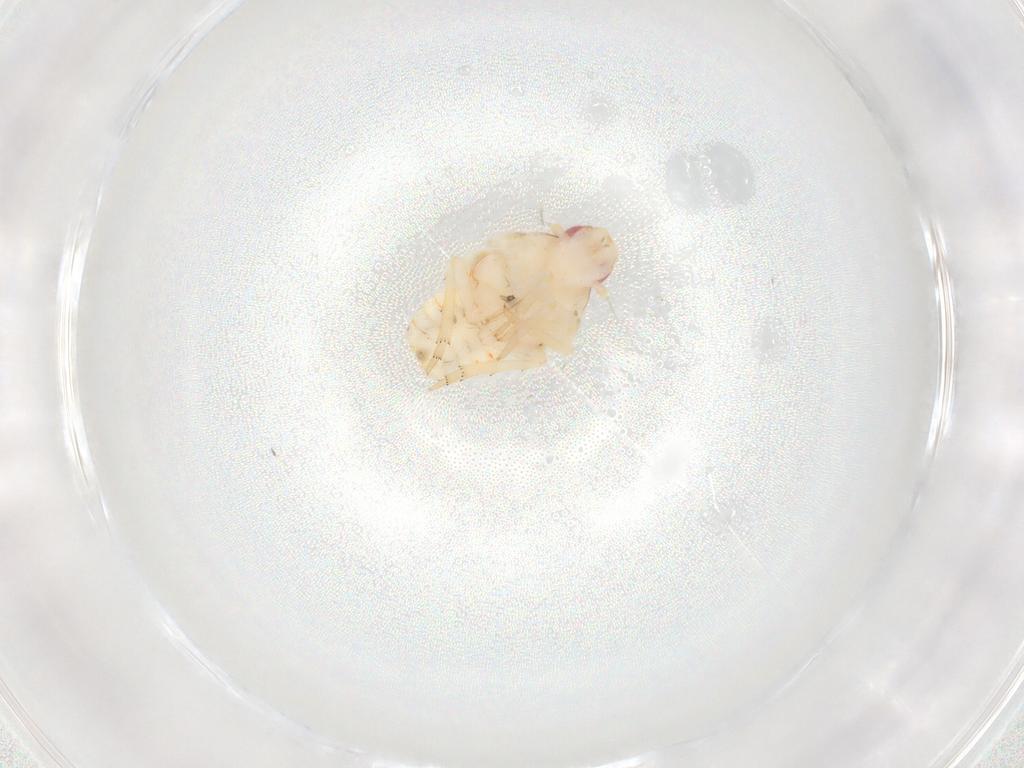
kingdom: Animalia
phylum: Arthropoda
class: Insecta
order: Hemiptera
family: Flatidae
